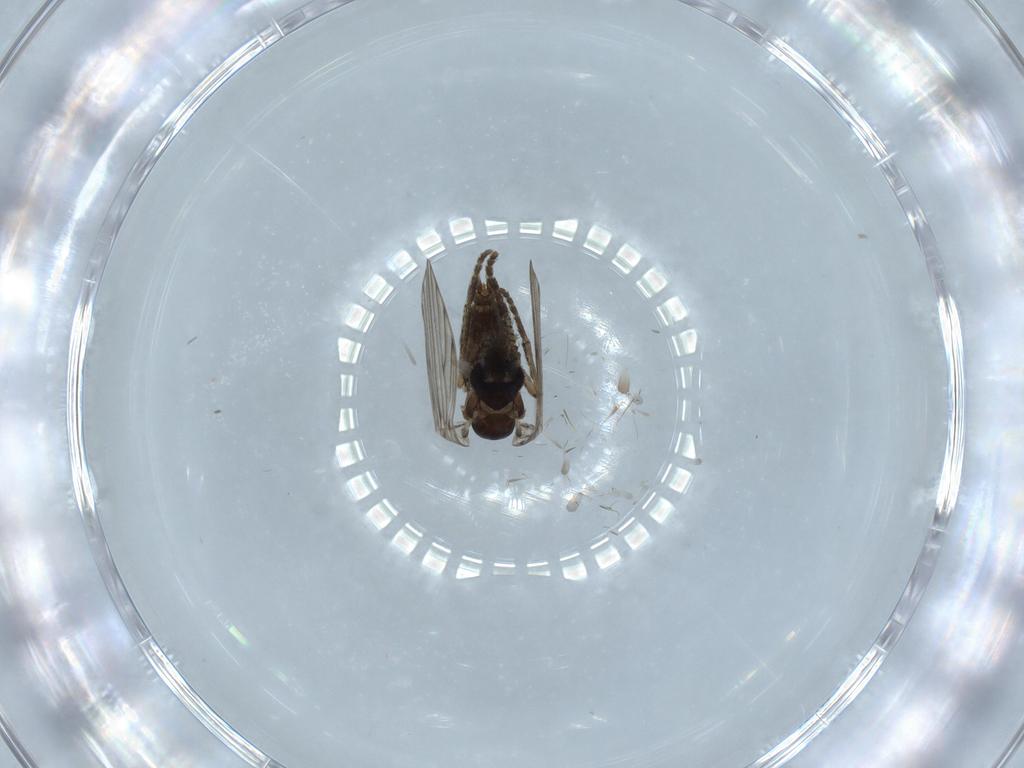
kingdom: Animalia
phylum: Arthropoda
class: Insecta
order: Diptera
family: Psychodidae
